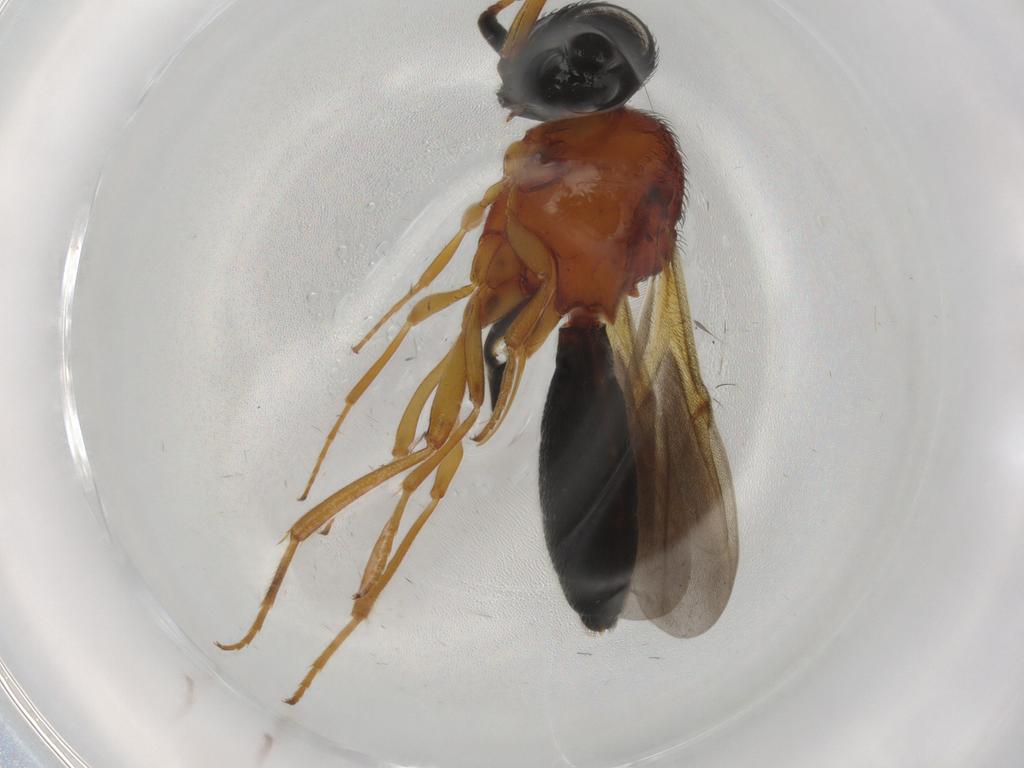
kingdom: Animalia
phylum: Arthropoda
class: Insecta
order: Hymenoptera
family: Scelionidae
